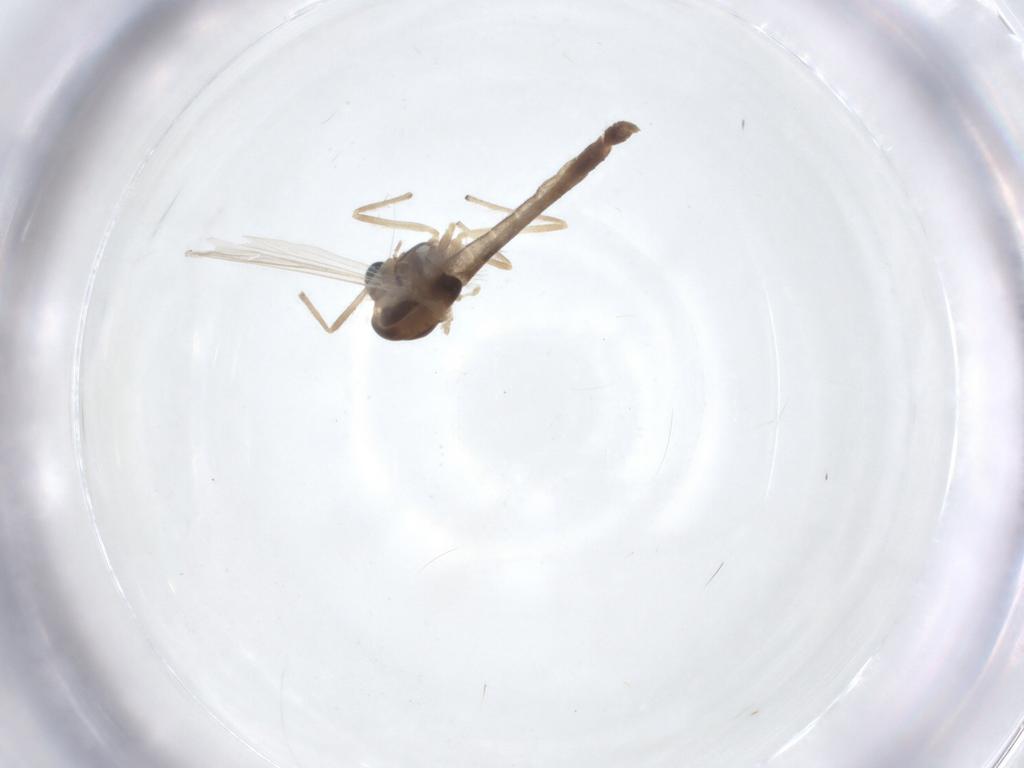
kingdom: Animalia
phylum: Arthropoda
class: Insecta
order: Diptera
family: Chironomidae
